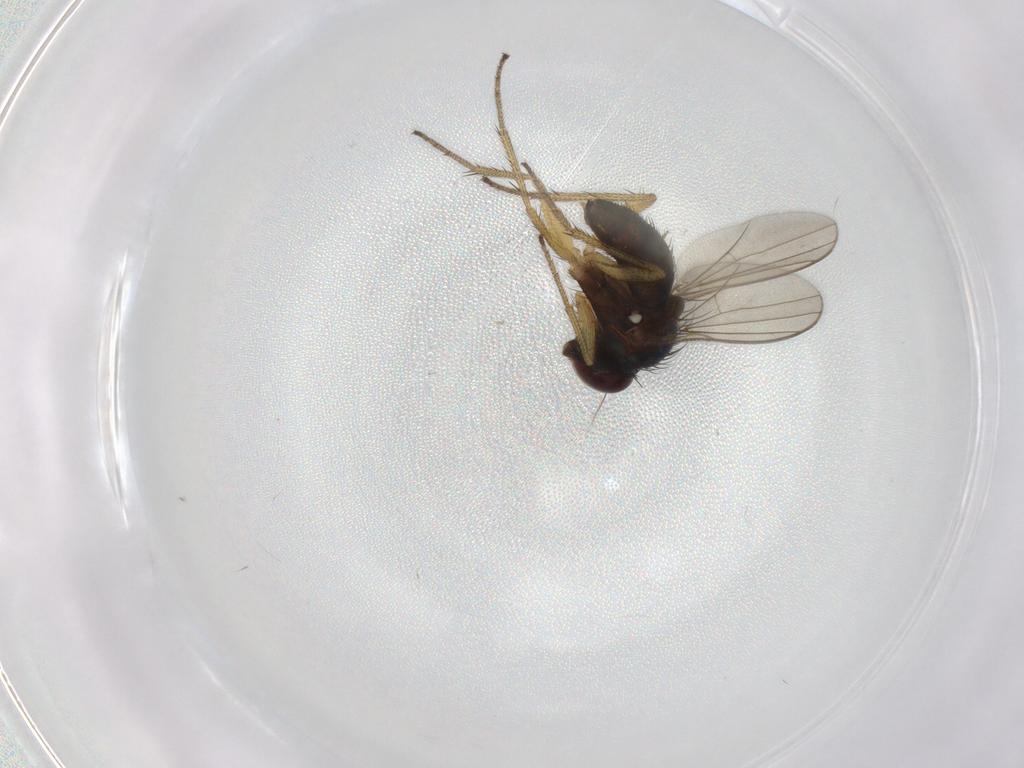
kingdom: Animalia
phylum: Arthropoda
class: Insecta
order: Diptera
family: Dolichopodidae
